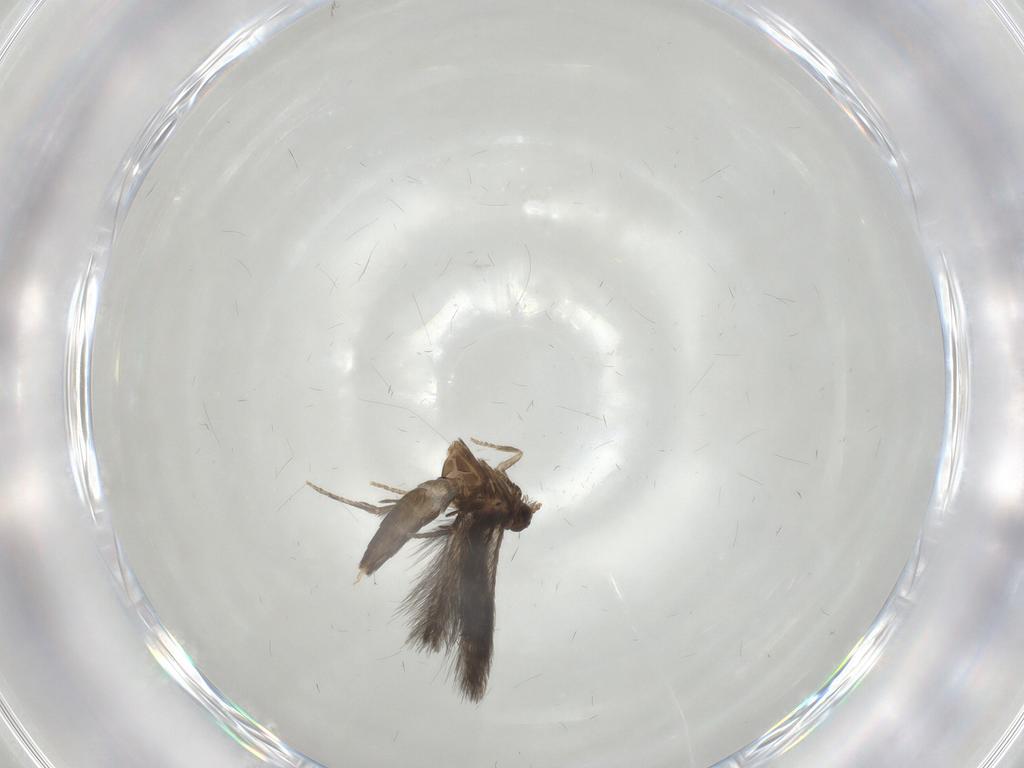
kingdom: Animalia
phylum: Arthropoda
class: Insecta
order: Trichoptera
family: Hydroptilidae
